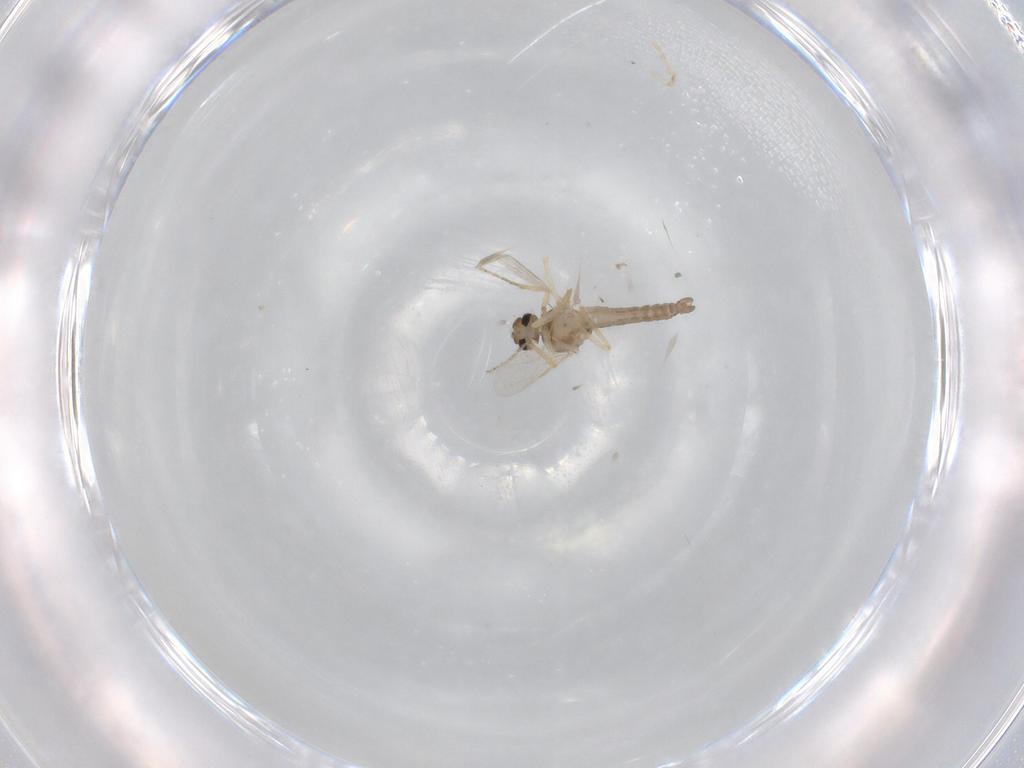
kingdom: Animalia
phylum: Arthropoda
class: Insecta
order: Diptera
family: Ceratopogonidae
